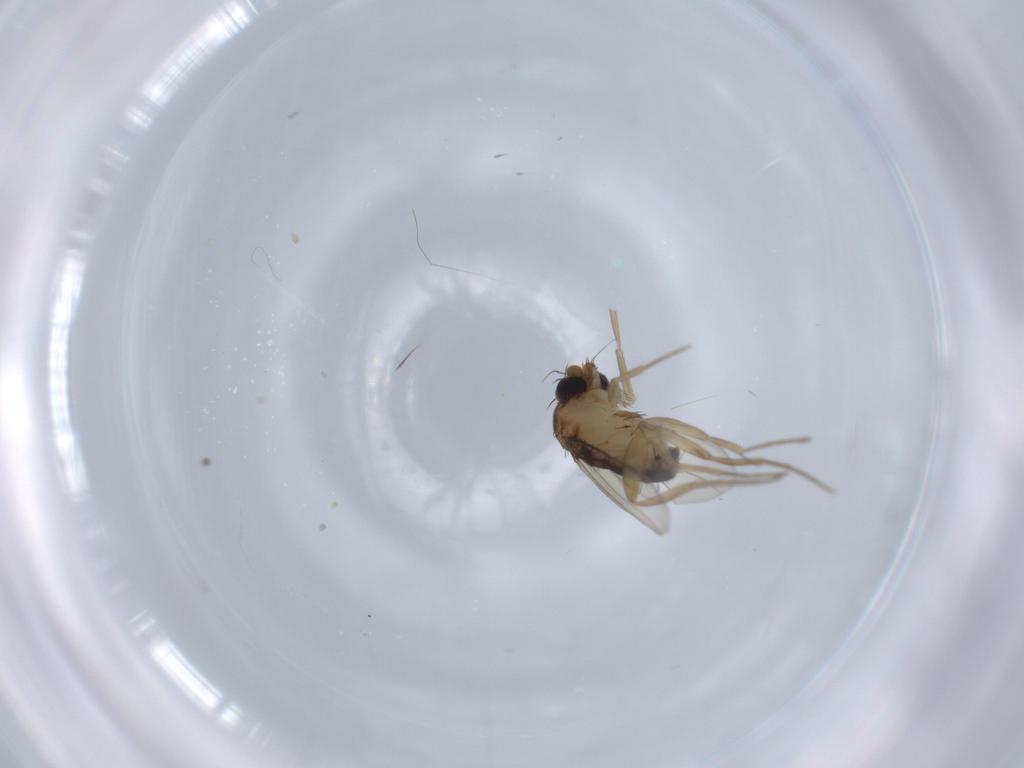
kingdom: Animalia
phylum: Arthropoda
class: Insecta
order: Diptera
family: Phoridae
